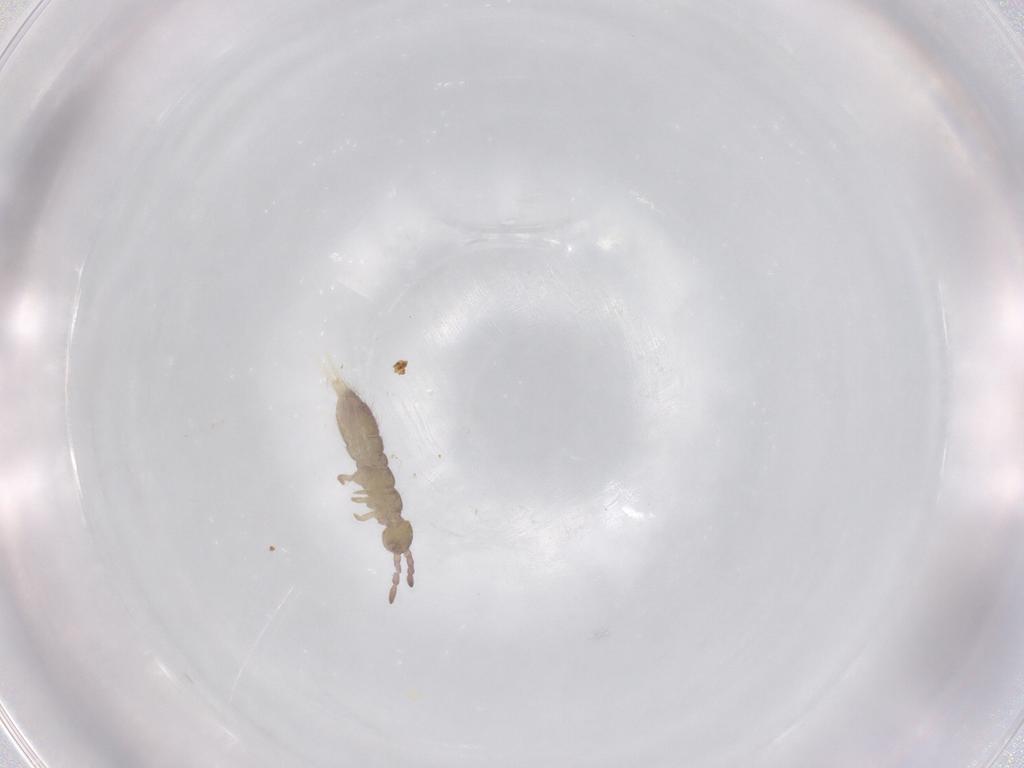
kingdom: Animalia
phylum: Arthropoda
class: Collembola
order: Entomobryomorpha
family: Isotomidae
